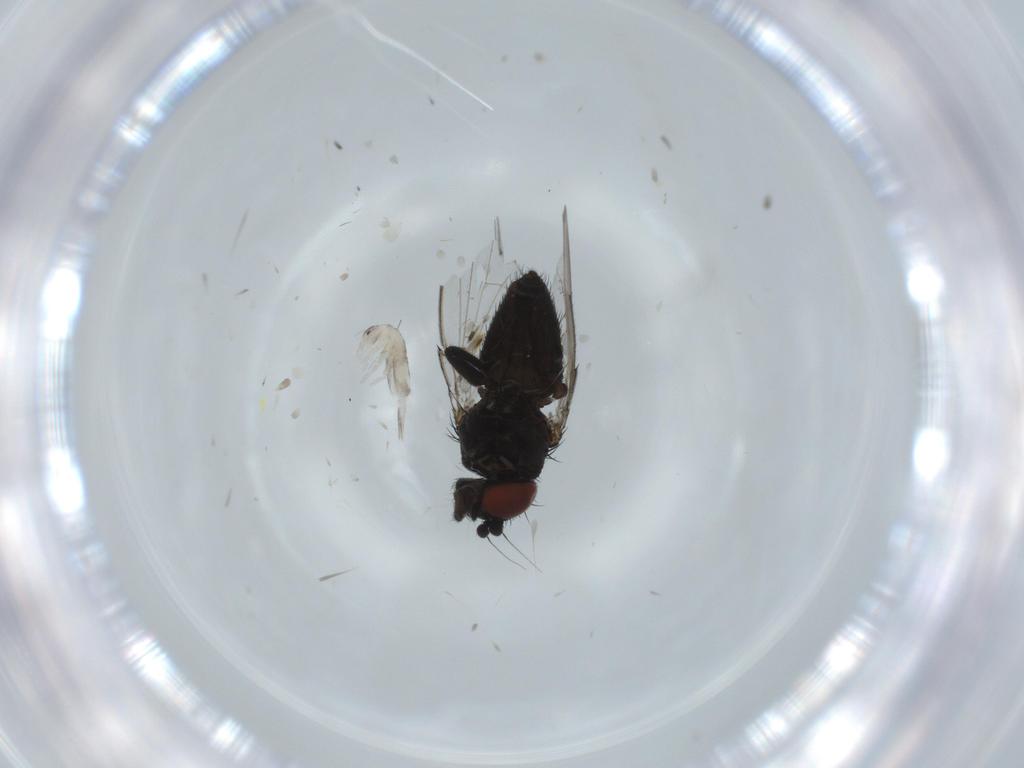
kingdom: Animalia
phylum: Arthropoda
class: Insecta
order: Diptera
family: Milichiidae
